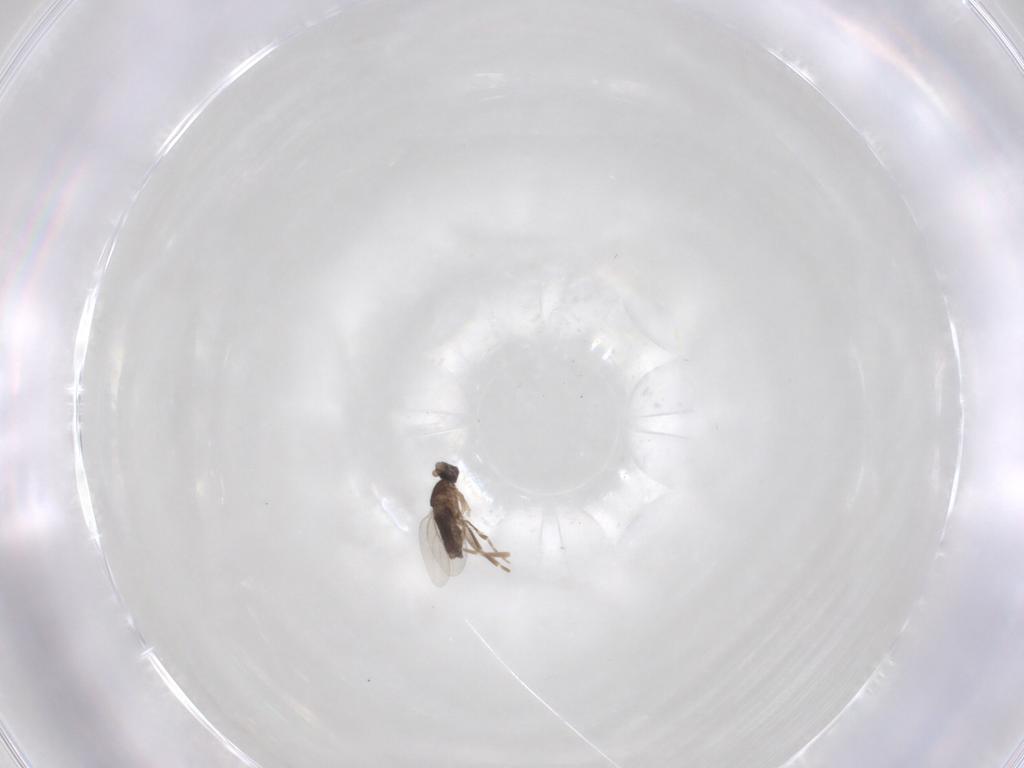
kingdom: Animalia
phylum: Arthropoda
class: Insecta
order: Diptera
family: Phoridae
